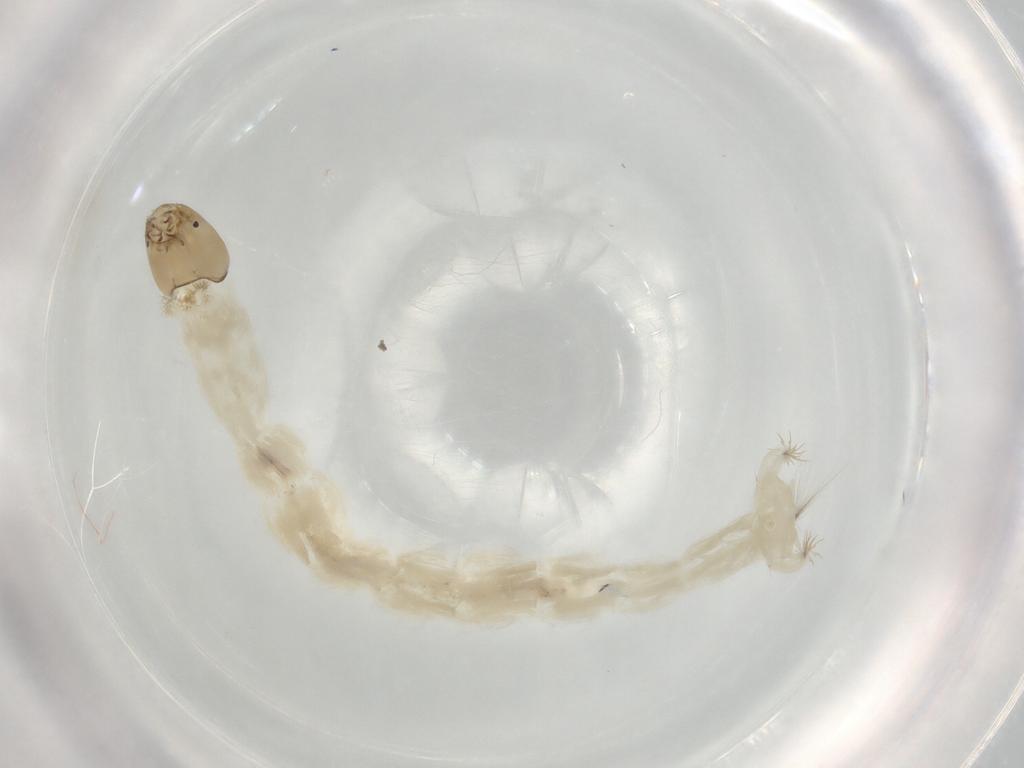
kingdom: Animalia
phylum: Arthropoda
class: Insecta
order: Diptera
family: Chironomidae
